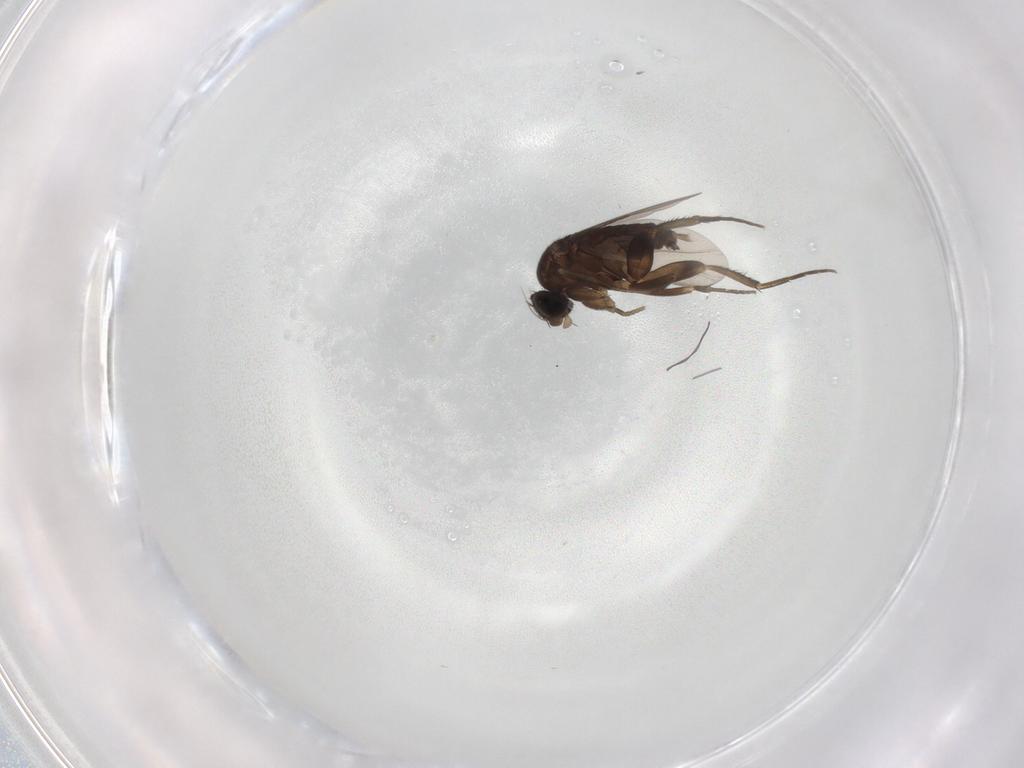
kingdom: Animalia
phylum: Arthropoda
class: Insecta
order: Diptera
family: Phoridae
